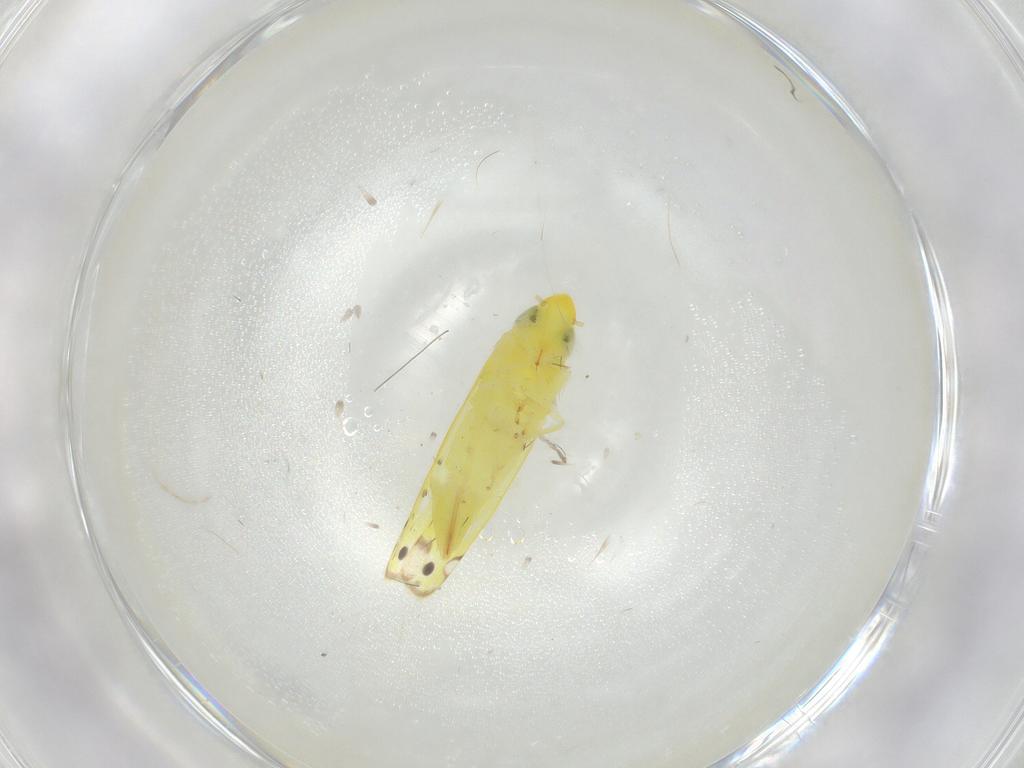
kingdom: Animalia
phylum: Arthropoda
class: Insecta
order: Hemiptera
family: Cicadellidae
